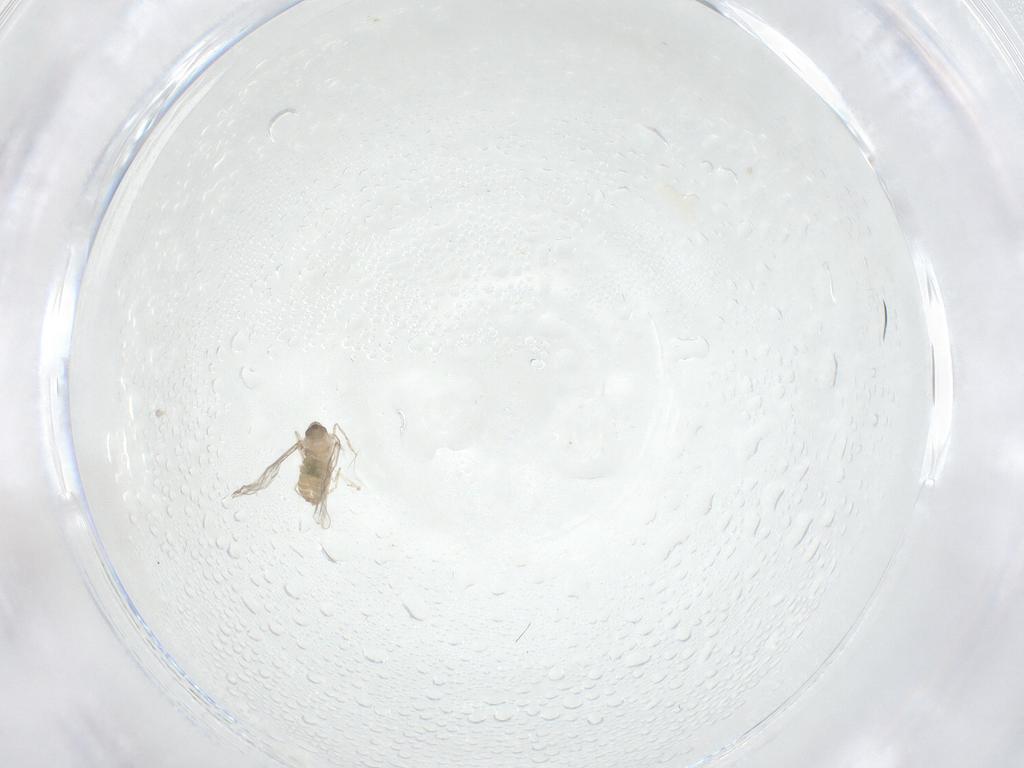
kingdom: Animalia
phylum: Arthropoda
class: Insecta
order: Diptera
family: Cecidomyiidae
